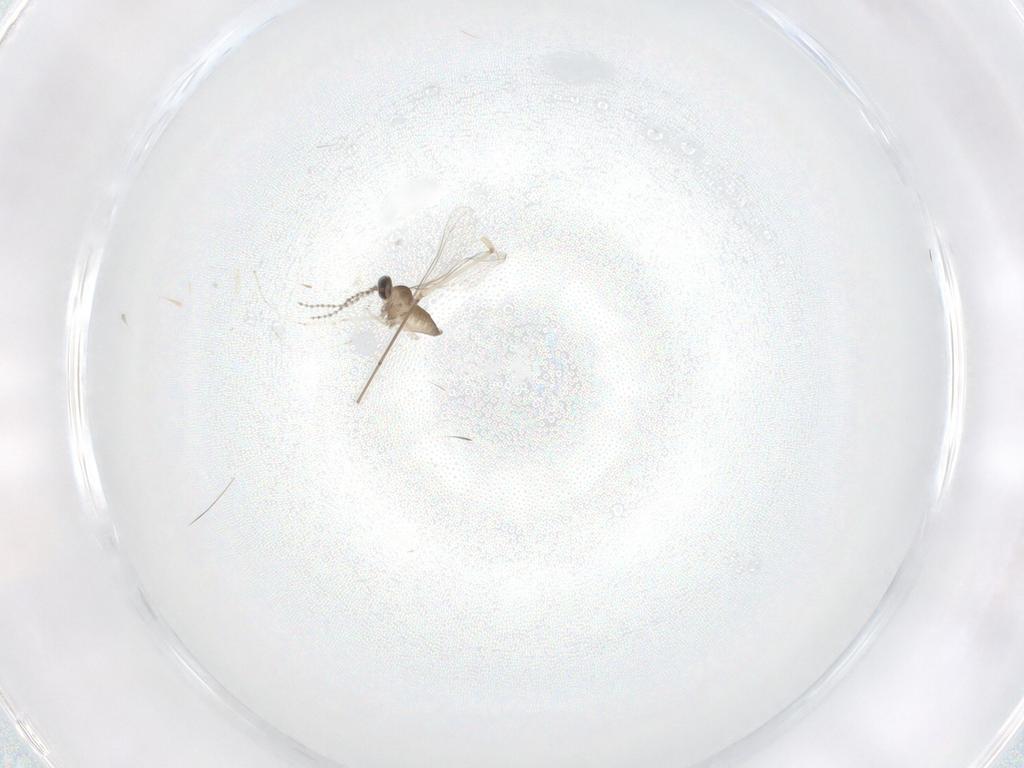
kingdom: Animalia
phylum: Arthropoda
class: Insecta
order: Diptera
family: Cecidomyiidae
